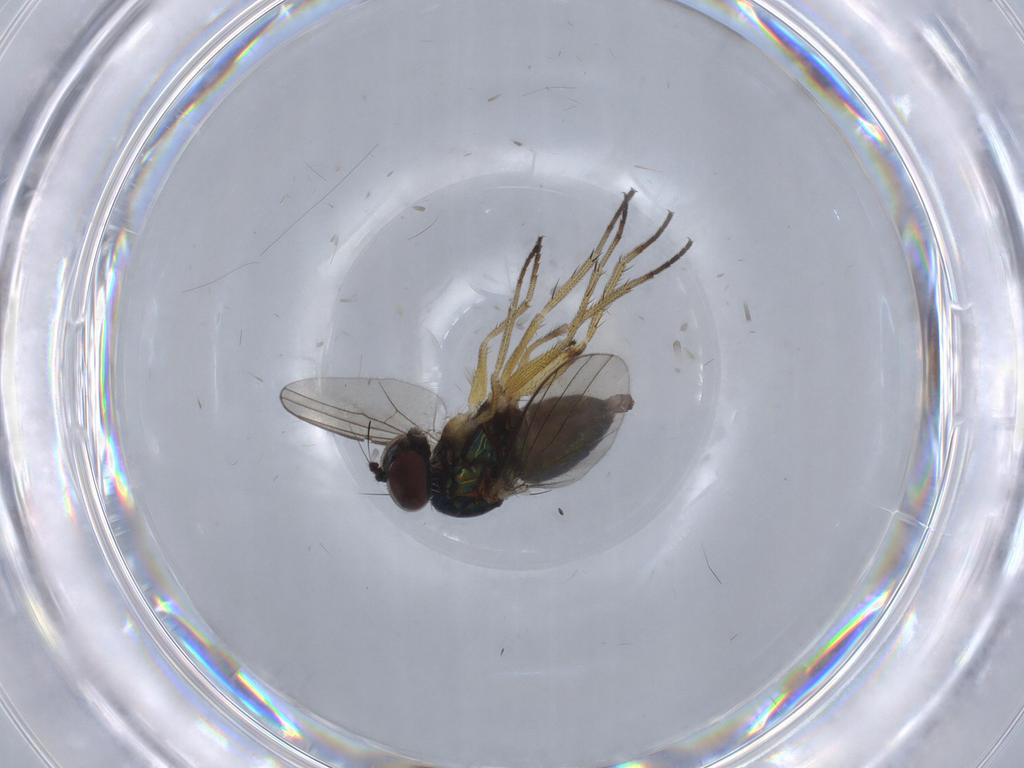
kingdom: Animalia
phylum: Arthropoda
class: Insecta
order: Diptera
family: Dolichopodidae
